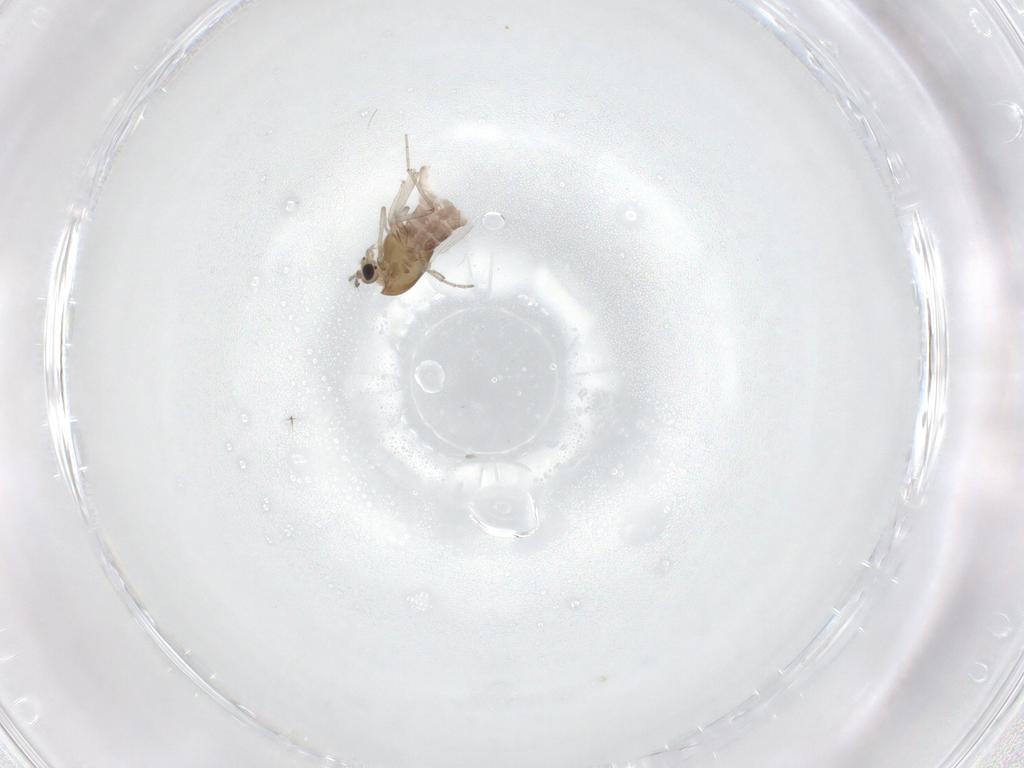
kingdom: Animalia
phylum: Arthropoda
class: Insecta
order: Diptera
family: Chironomidae
